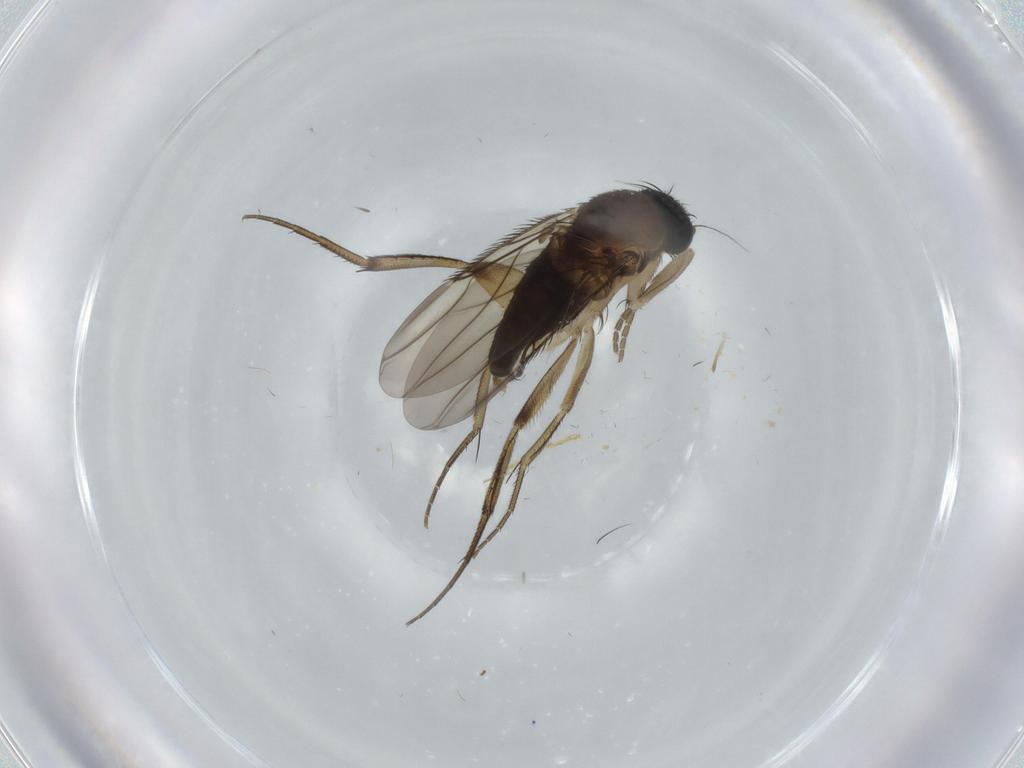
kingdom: Animalia
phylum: Arthropoda
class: Insecta
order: Diptera
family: Phoridae
